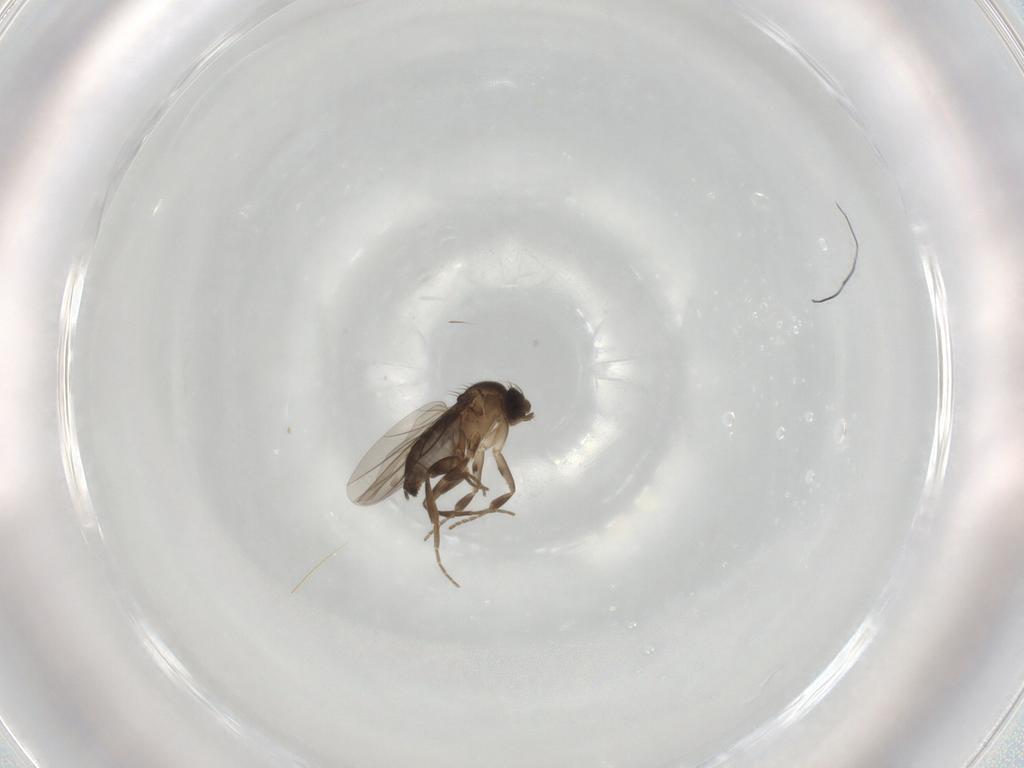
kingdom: Animalia
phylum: Arthropoda
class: Insecta
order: Diptera
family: Phoridae
